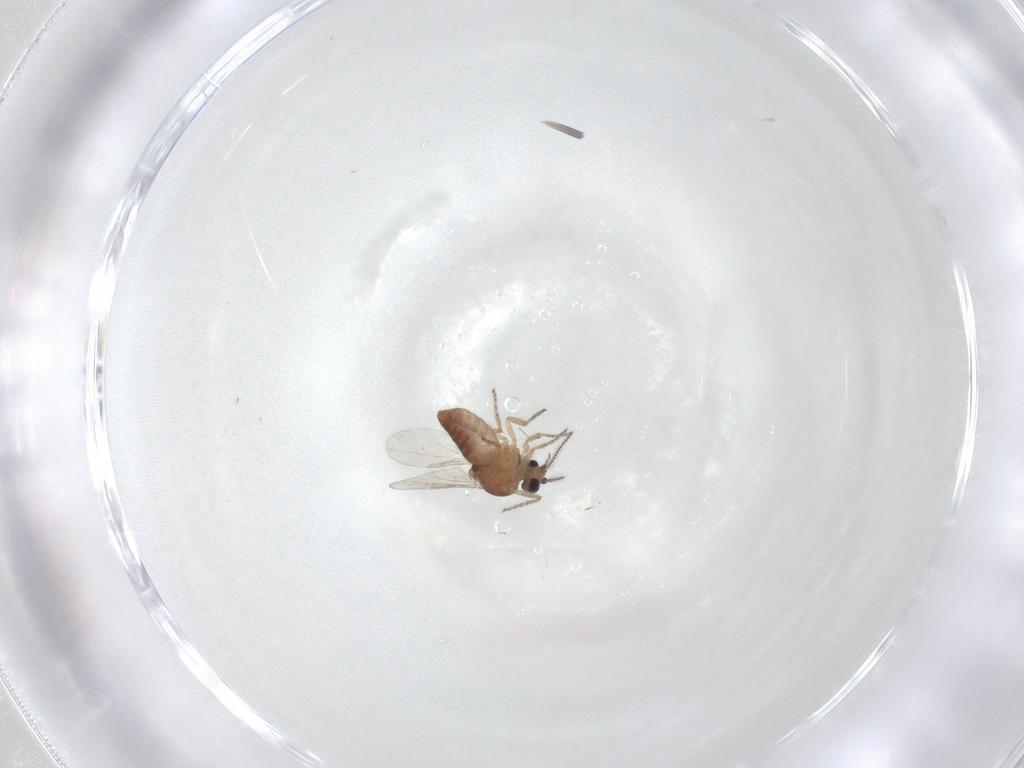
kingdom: Animalia
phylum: Arthropoda
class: Insecta
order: Diptera
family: Ceratopogonidae
